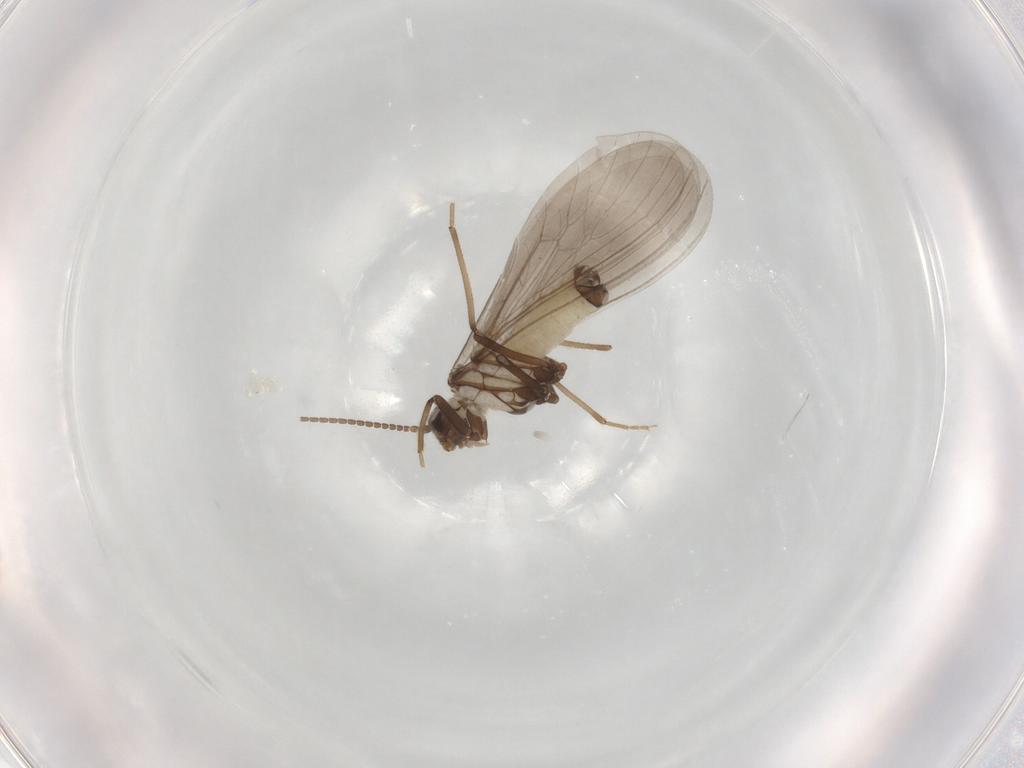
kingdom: Animalia
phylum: Arthropoda
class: Insecta
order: Neuroptera
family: Coniopterygidae
